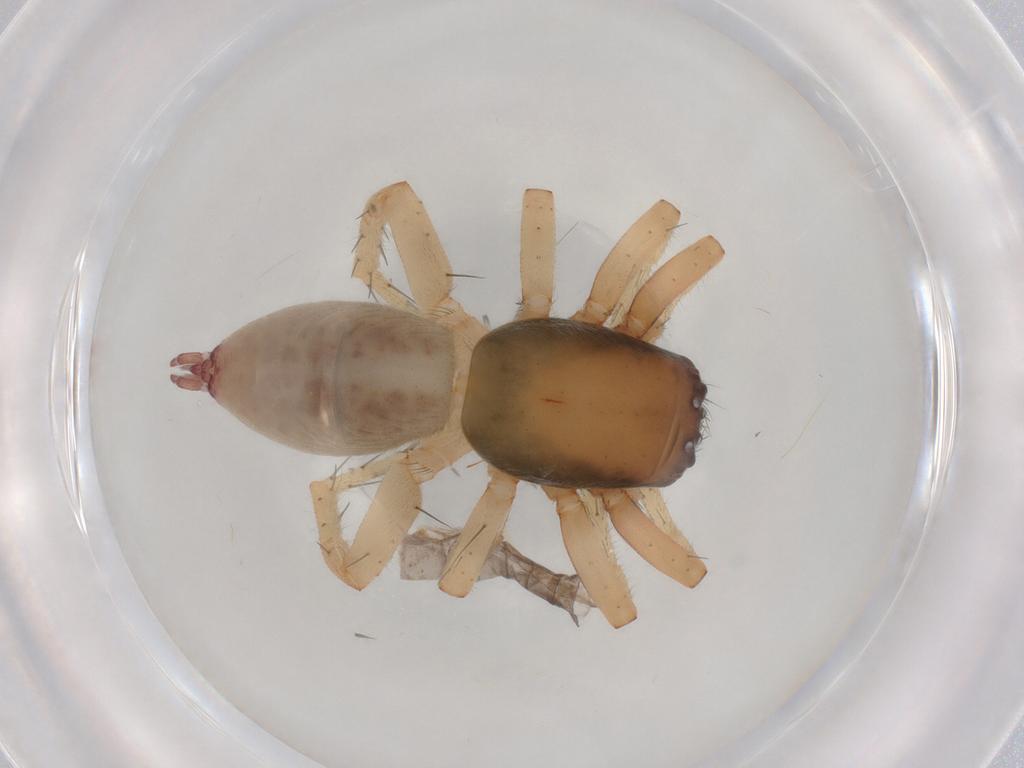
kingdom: Animalia
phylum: Arthropoda
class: Arachnida
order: Araneae
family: Clubionidae
